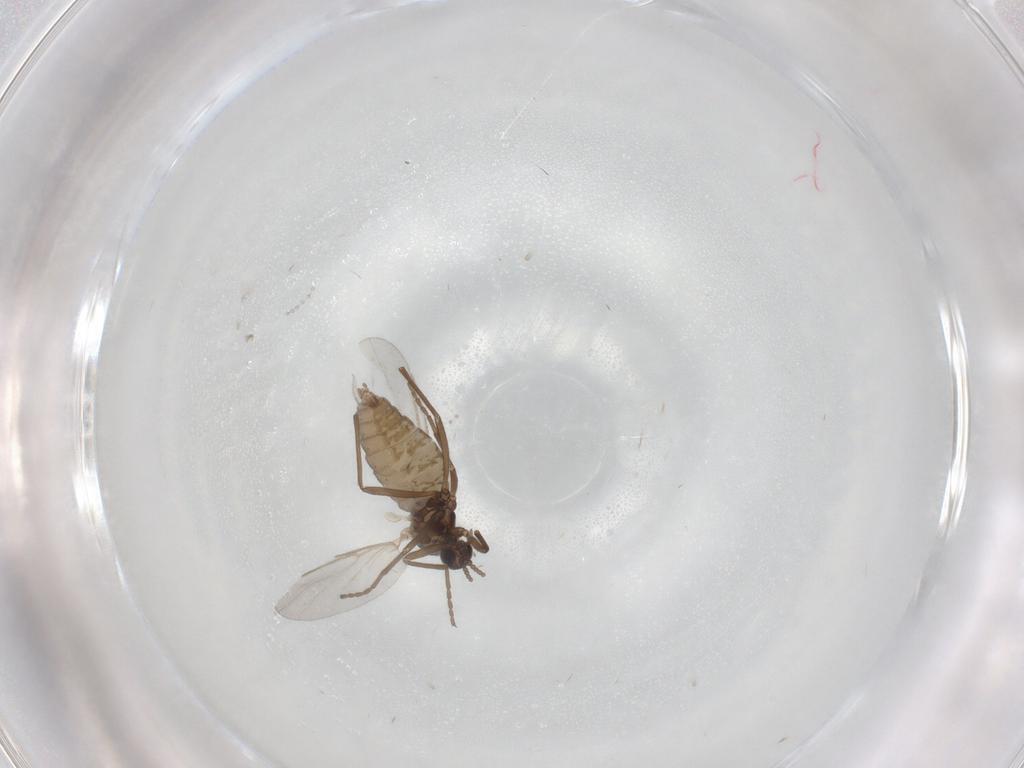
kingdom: Animalia
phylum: Arthropoda
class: Insecta
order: Diptera
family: Cecidomyiidae
